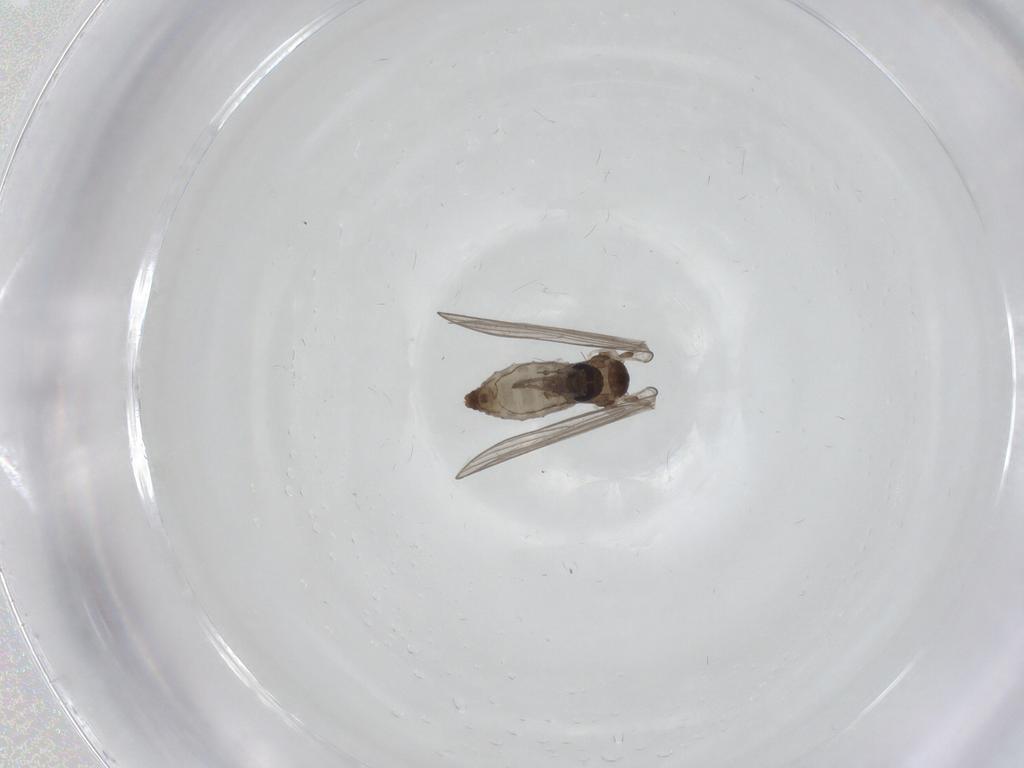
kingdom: Animalia
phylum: Arthropoda
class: Insecta
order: Diptera
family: Psychodidae
